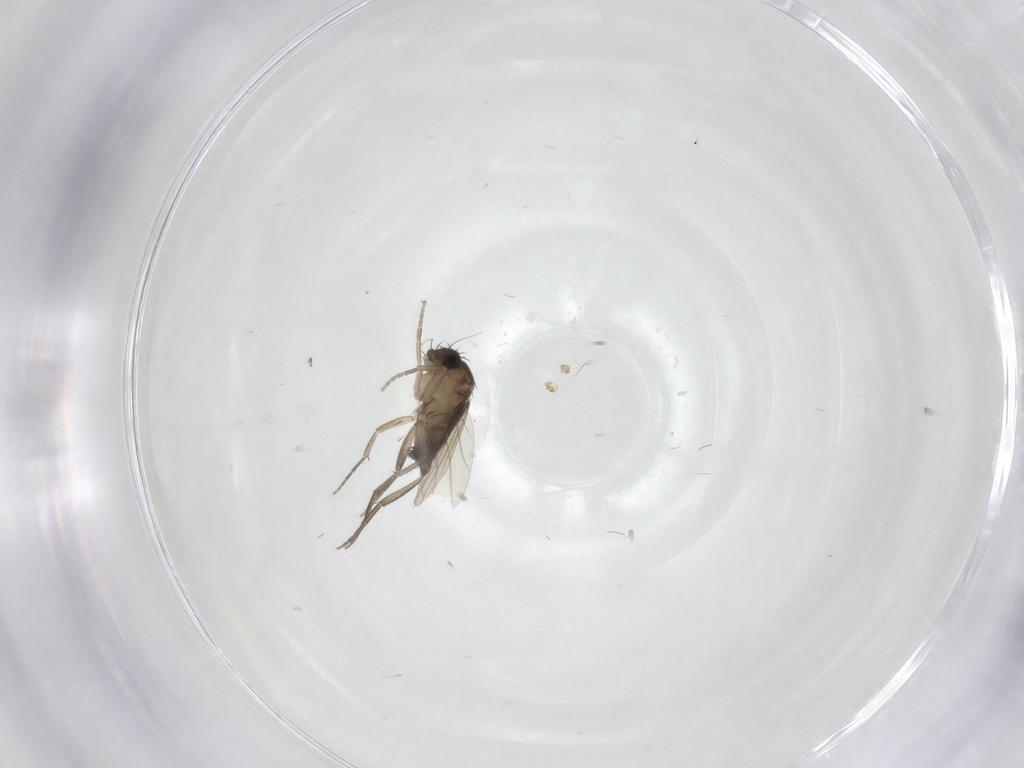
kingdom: Animalia
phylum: Arthropoda
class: Insecta
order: Diptera
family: Phoridae
